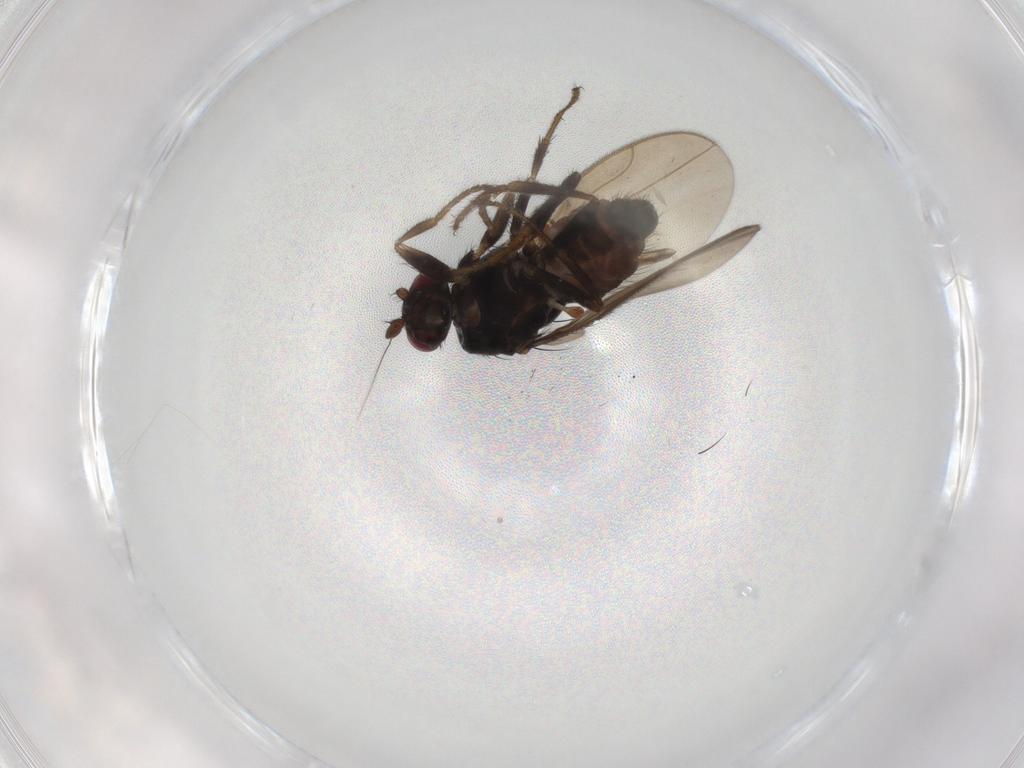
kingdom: Animalia
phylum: Arthropoda
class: Insecta
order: Diptera
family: Sphaeroceridae
